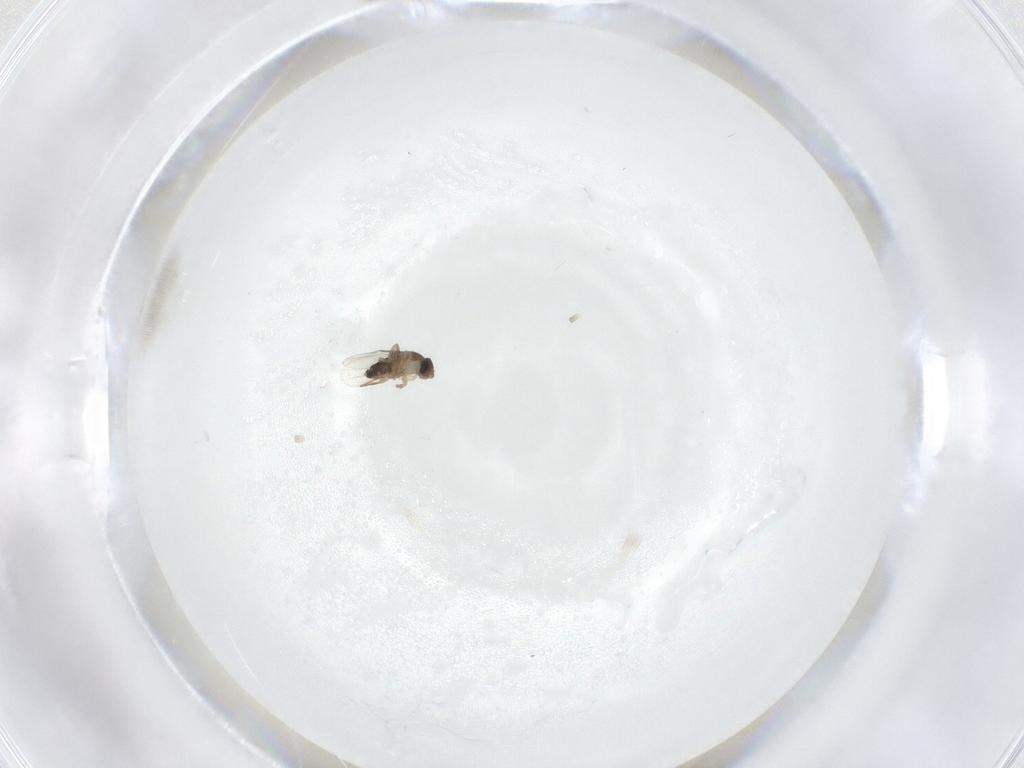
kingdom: Animalia
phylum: Arthropoda
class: Insecta
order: Diptera
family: Phoridae
